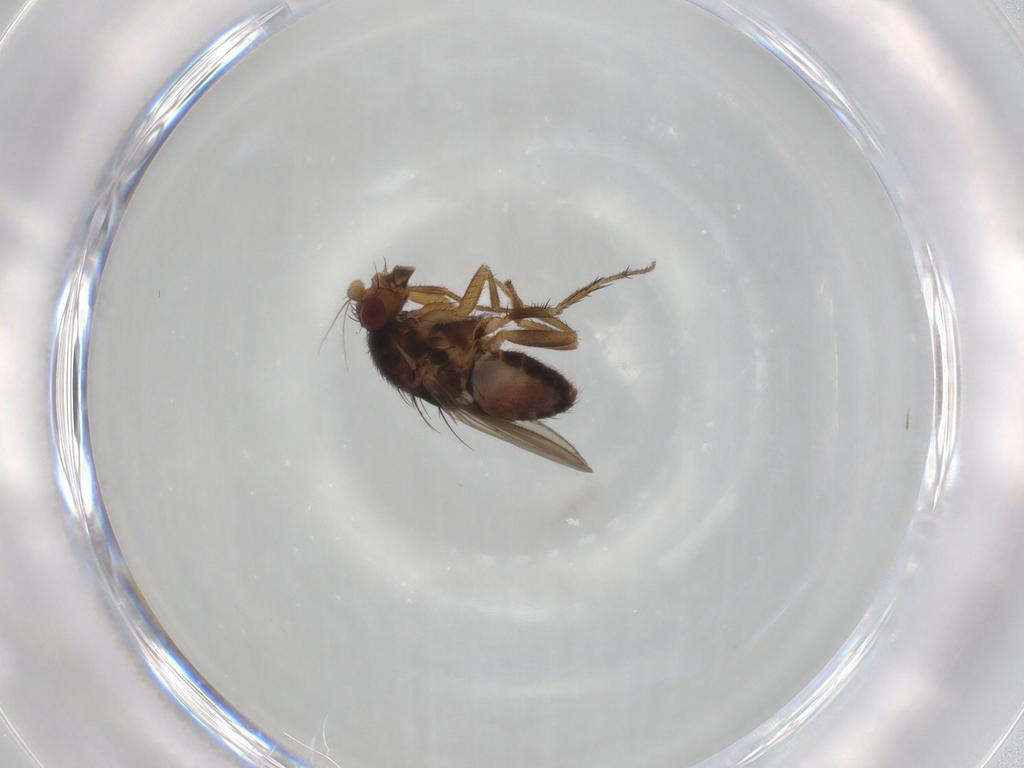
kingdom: Animalia
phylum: Arthropoda
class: Insecta
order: Diptera
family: Sphaeroceridae
